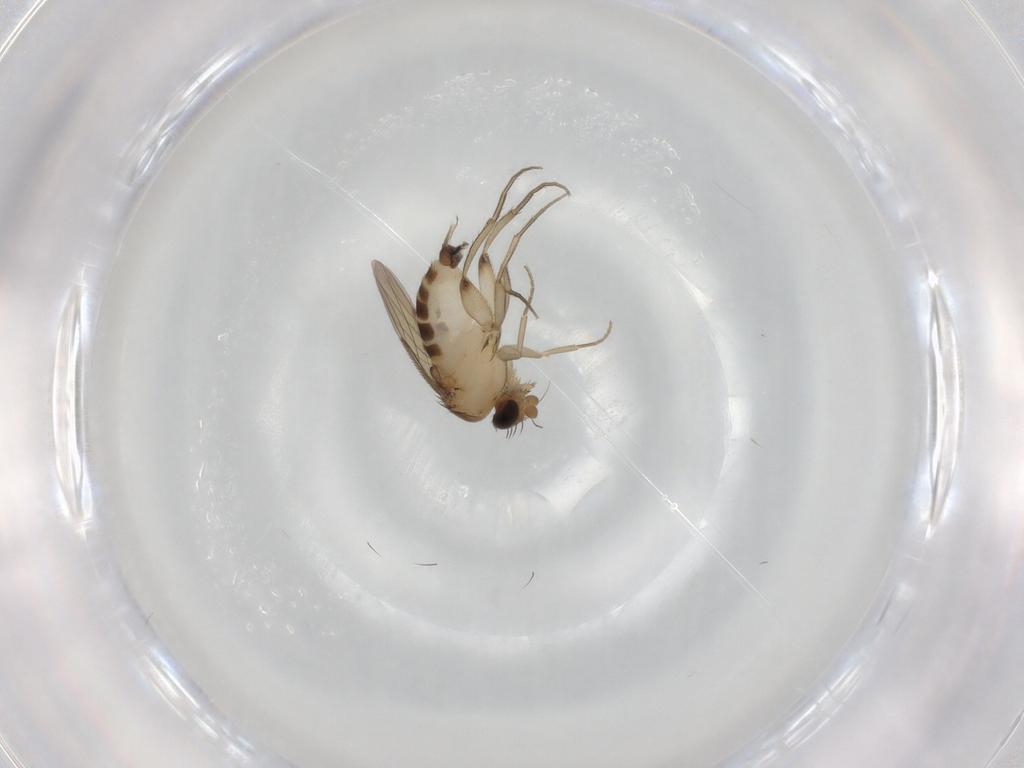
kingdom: Animalia
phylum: Arthropoda
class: Insecta
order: Diptera
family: Phoridae
